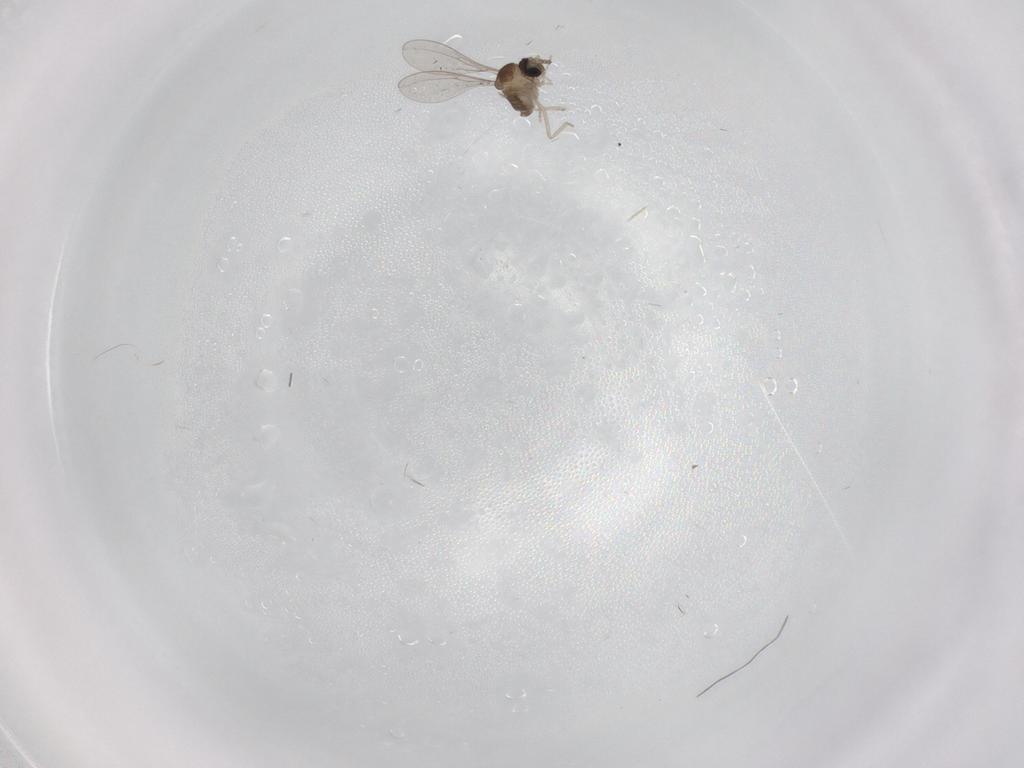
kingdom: Animalia
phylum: Arthropoda
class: Insecta
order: Diptera
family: Cecidomyiidae
